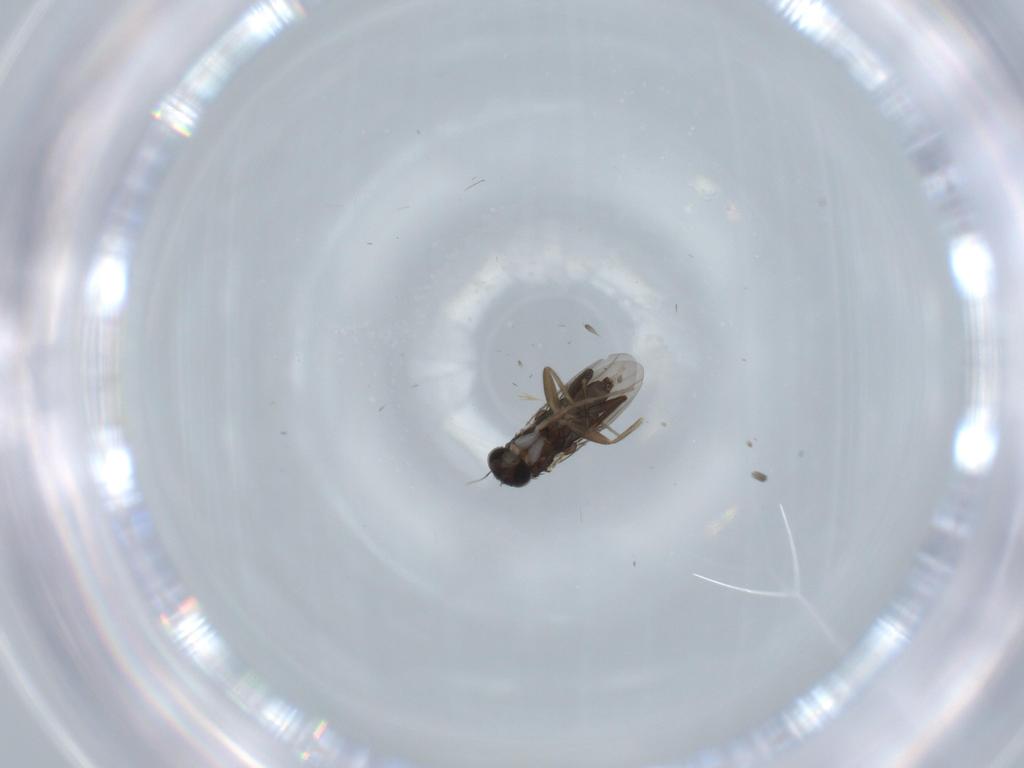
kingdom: Animalia
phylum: Arthropoda
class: Insecta
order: Diptera
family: Phoridae
